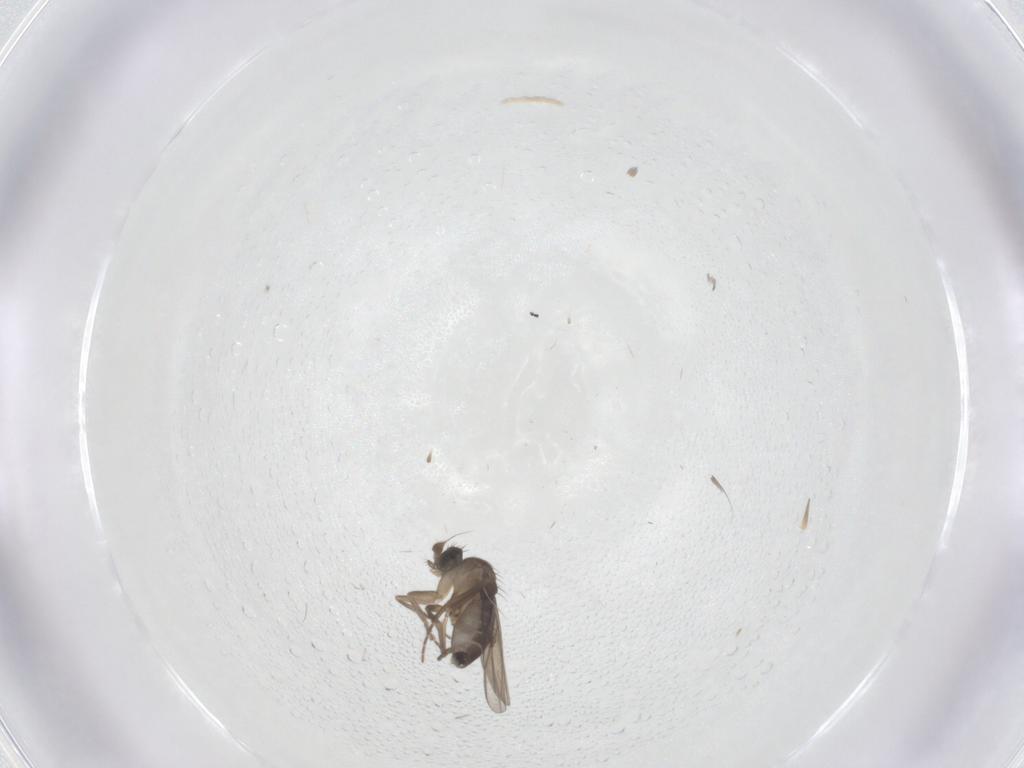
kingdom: Animalia
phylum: Arthropoda
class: Insecta
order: Diptera
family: Phoridae
